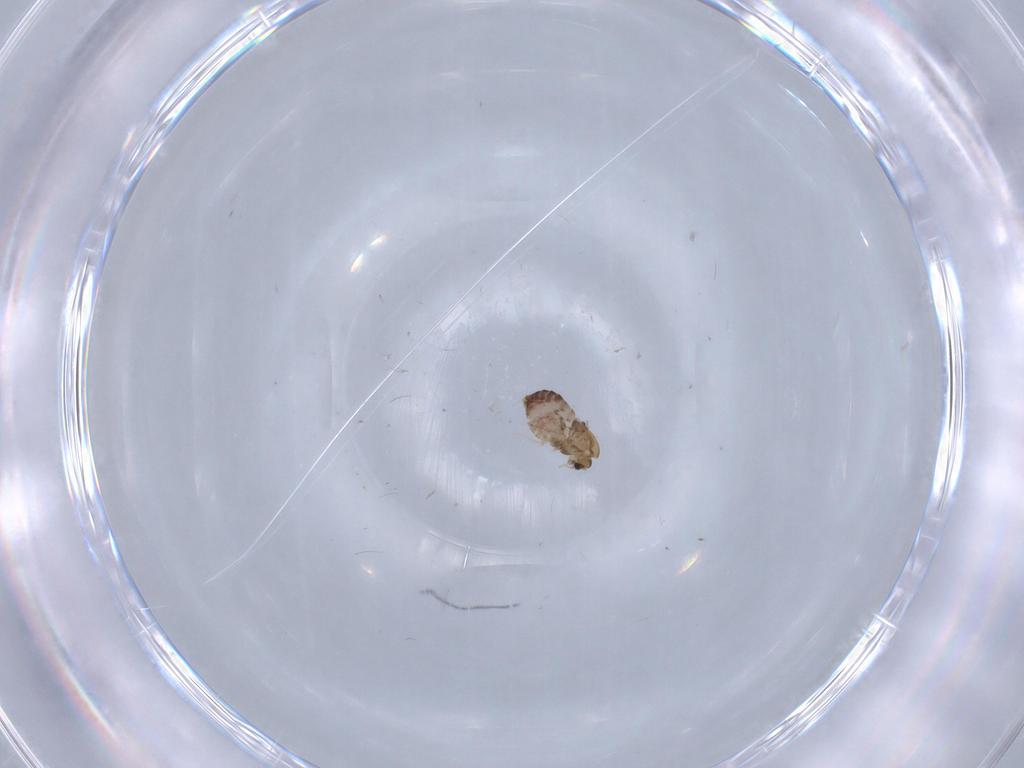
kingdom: Animalia
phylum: Arthropoda
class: Insecta
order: Diptera
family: Chironomidae
